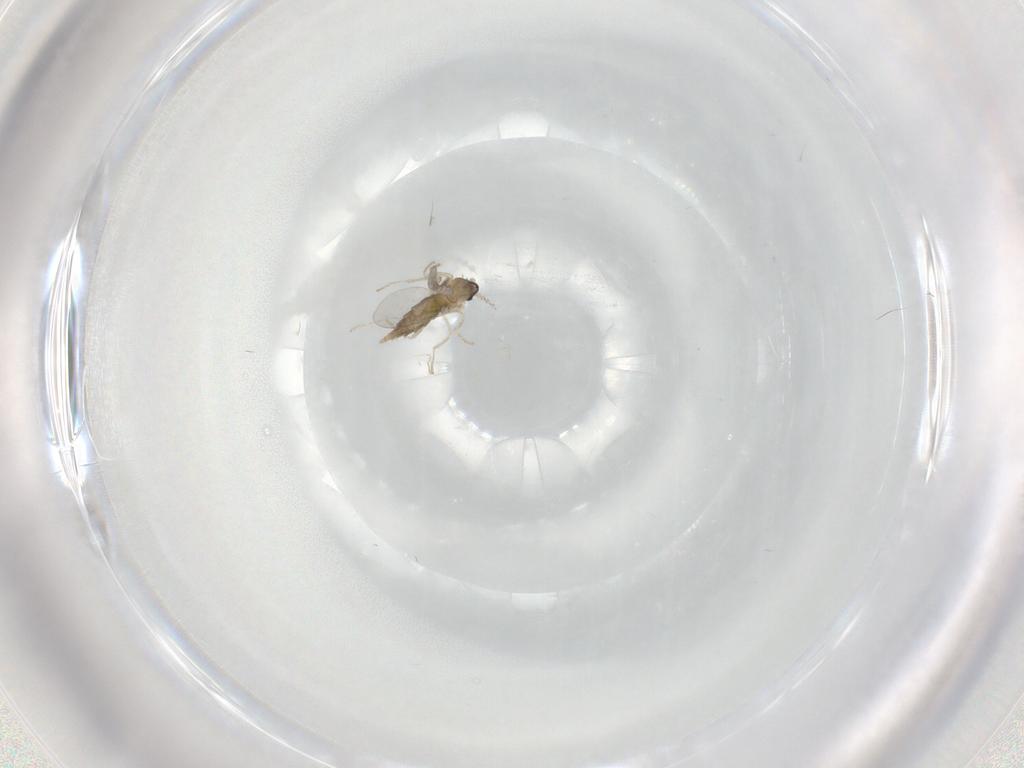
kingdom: Animalia
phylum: Arthropoda
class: Insecta
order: Diptera
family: Cecidomyiidae
